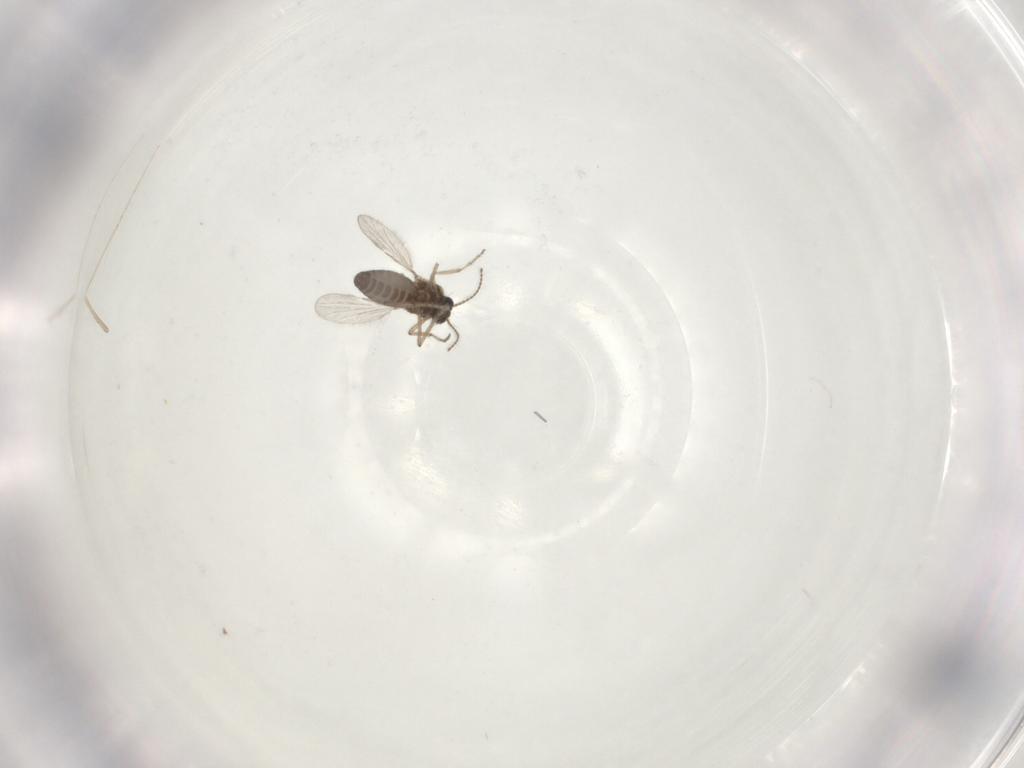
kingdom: Animalia
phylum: Arthropoda
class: Insecta
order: Diptera
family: Ceratopogonidae
